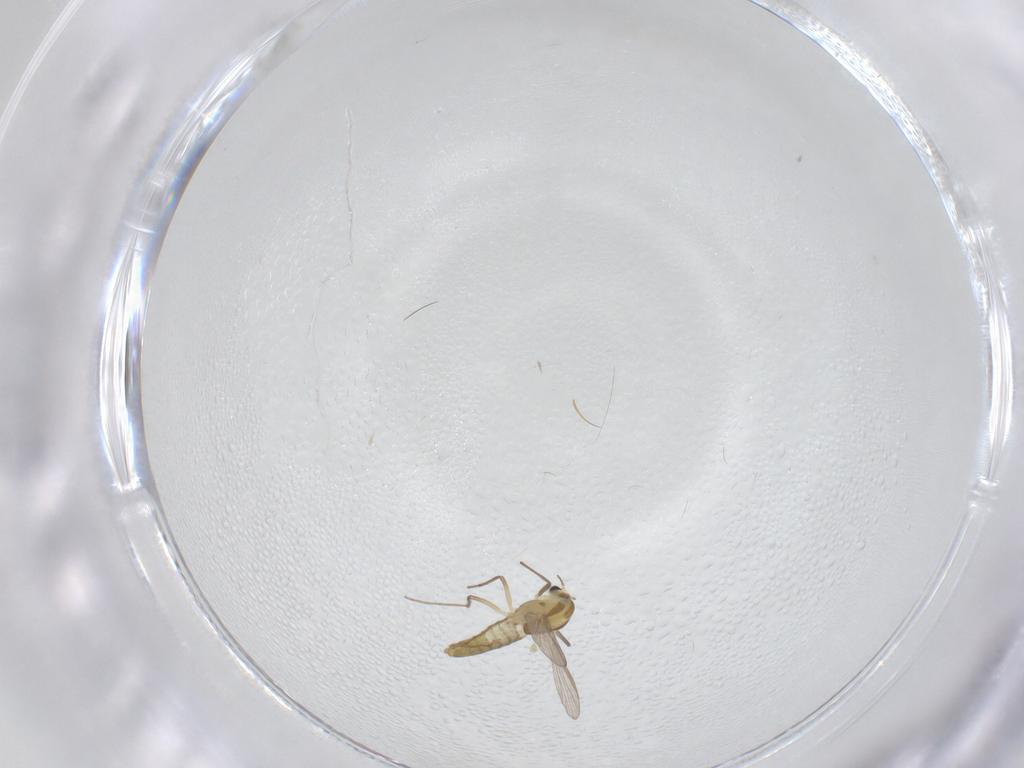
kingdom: Animalia
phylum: Arthropoda
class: Insecta
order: Diptera
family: Chironomidae
